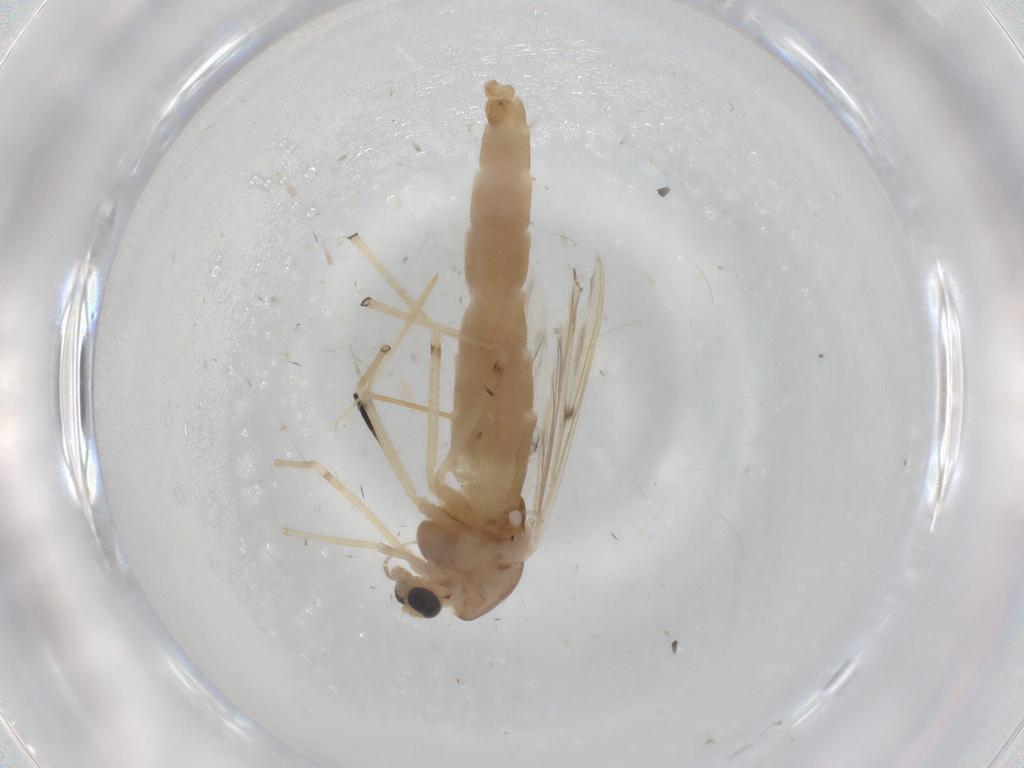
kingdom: Animalia
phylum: Arthropoda
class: Insecta
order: Diptera
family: Chironomidae
